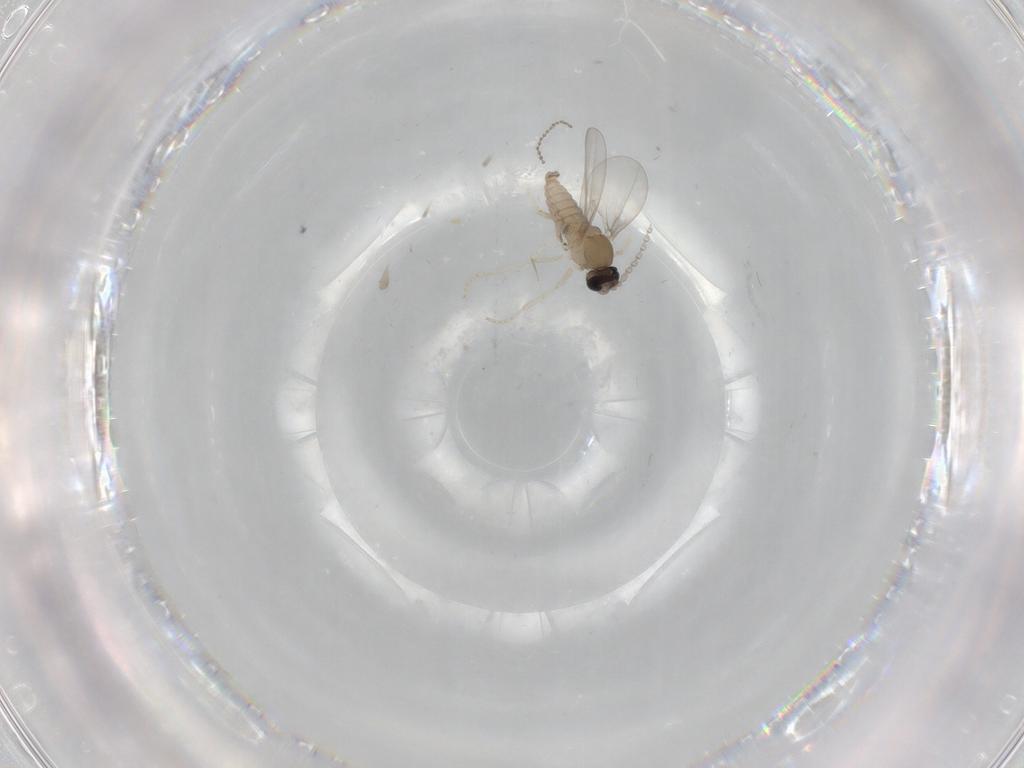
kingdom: Animalia
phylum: Arthropoda
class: Insecta
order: Diptera
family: Cecidomyiidae
